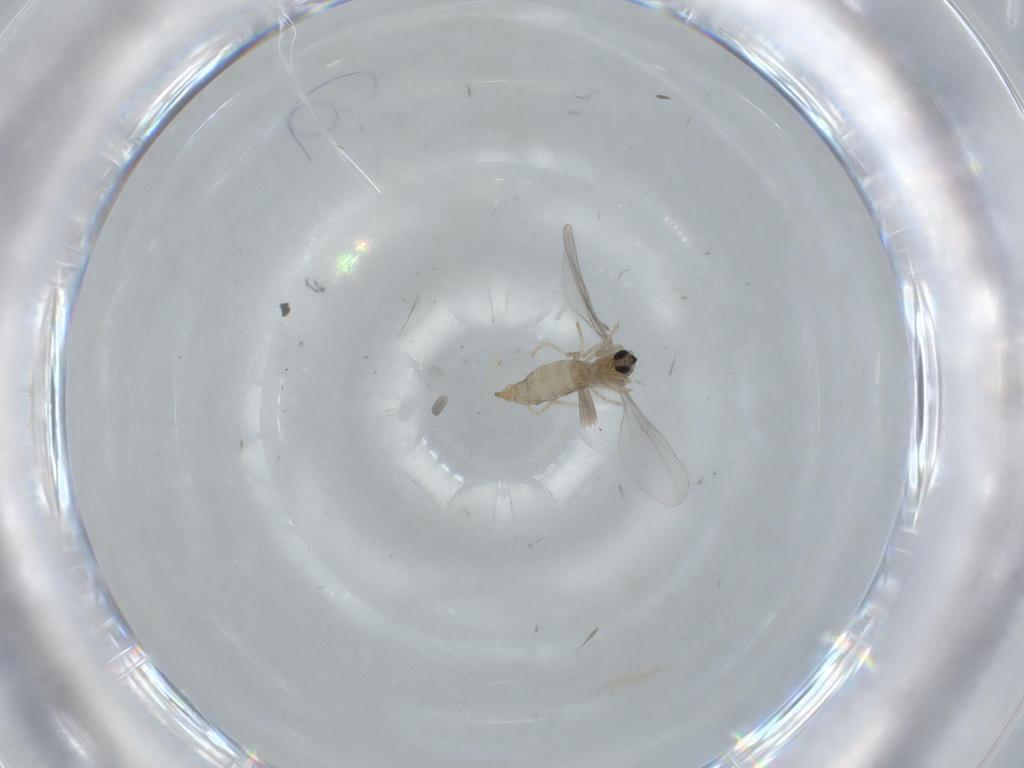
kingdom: Animalia
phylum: Arthropoda
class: Insecta
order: Diptera
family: Cecidomyiidae
